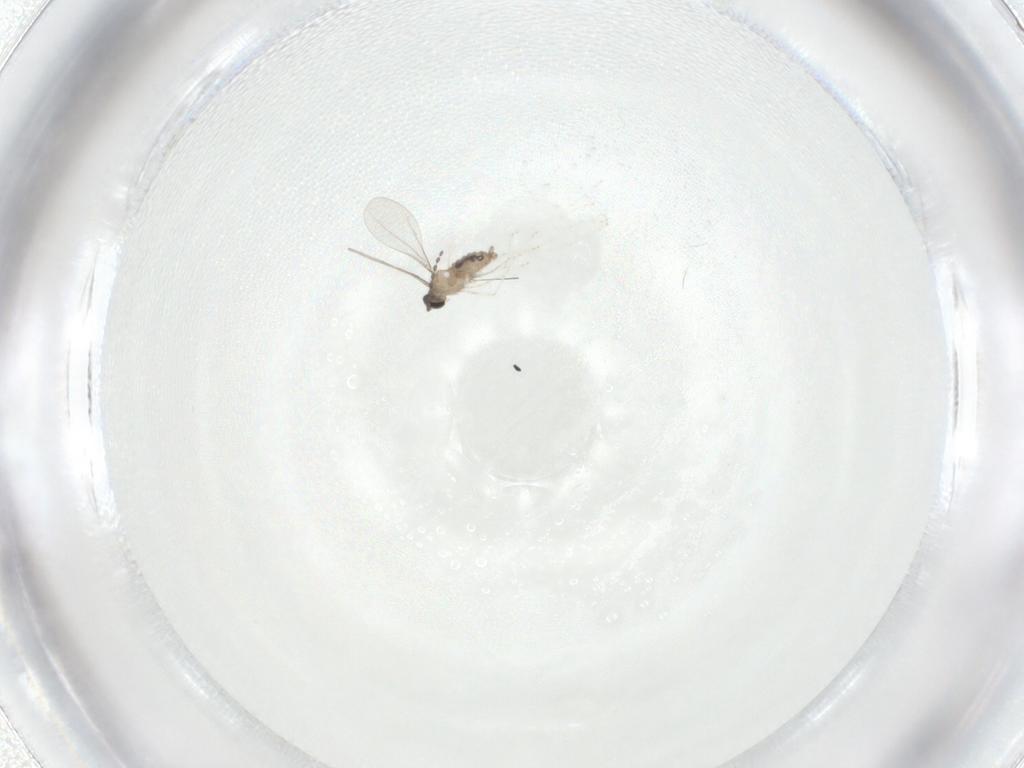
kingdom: Animalia
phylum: Arthropoda
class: Insecta
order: Diptera
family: Cecidomyiidae
